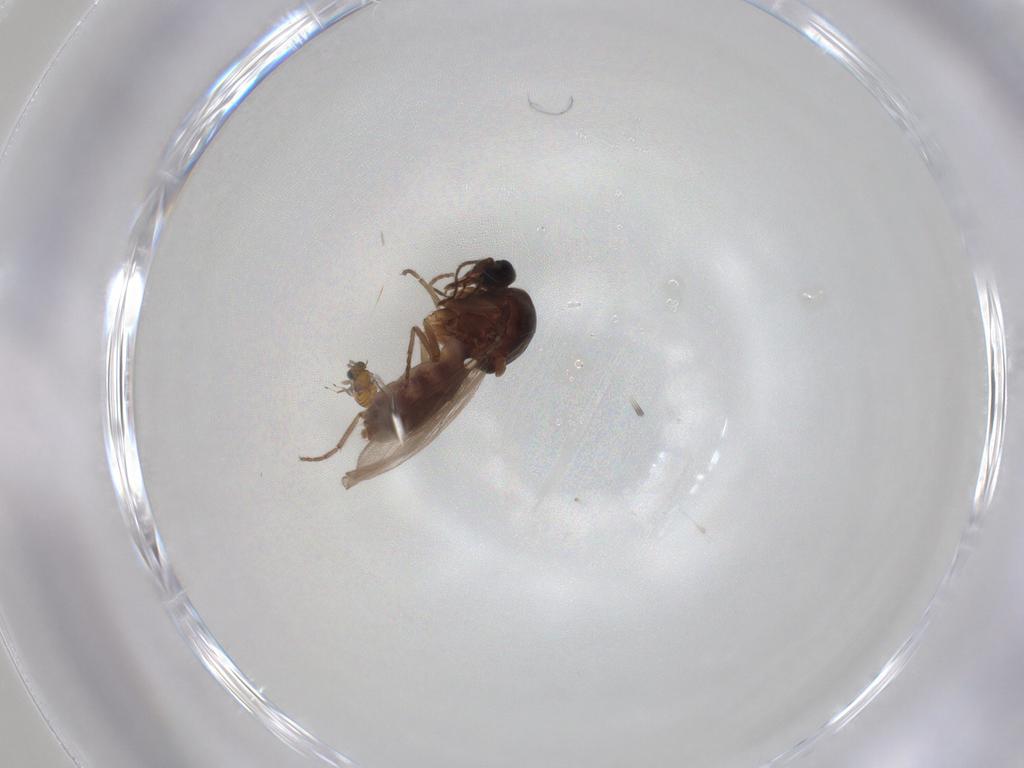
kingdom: Animalia
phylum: Arthropoda
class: Insecta
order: Diptera
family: Ceratopogonidae
